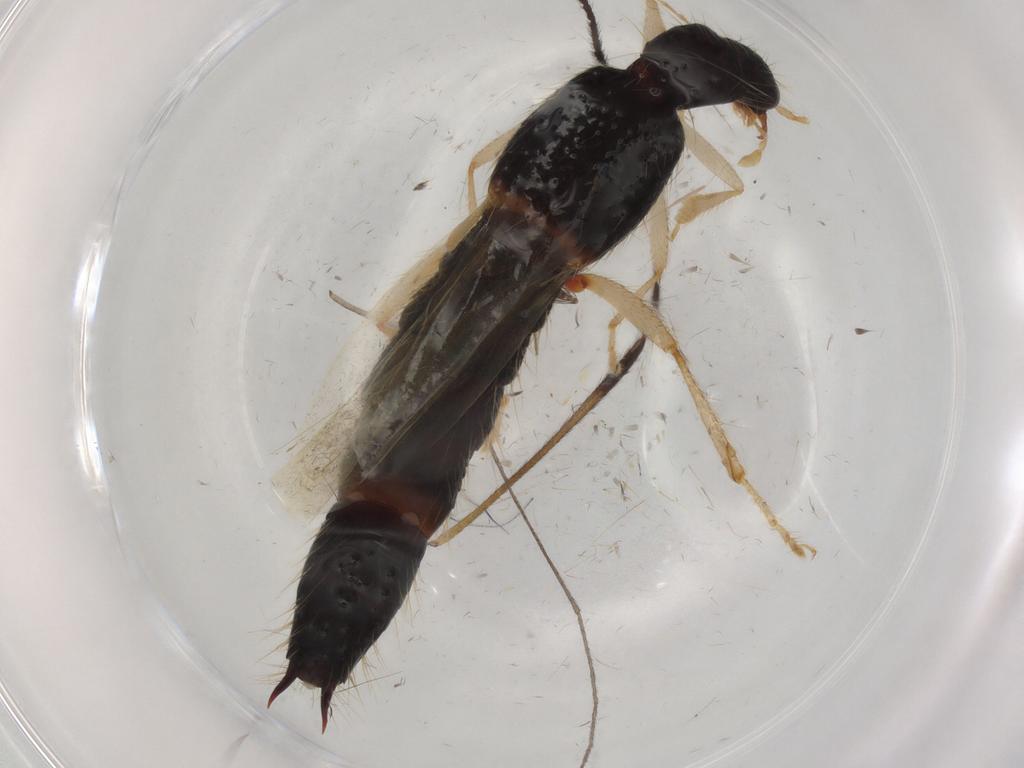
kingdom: Animalia
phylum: Arthropoda
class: Insecta
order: Coleoptera
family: Staphylinidae
